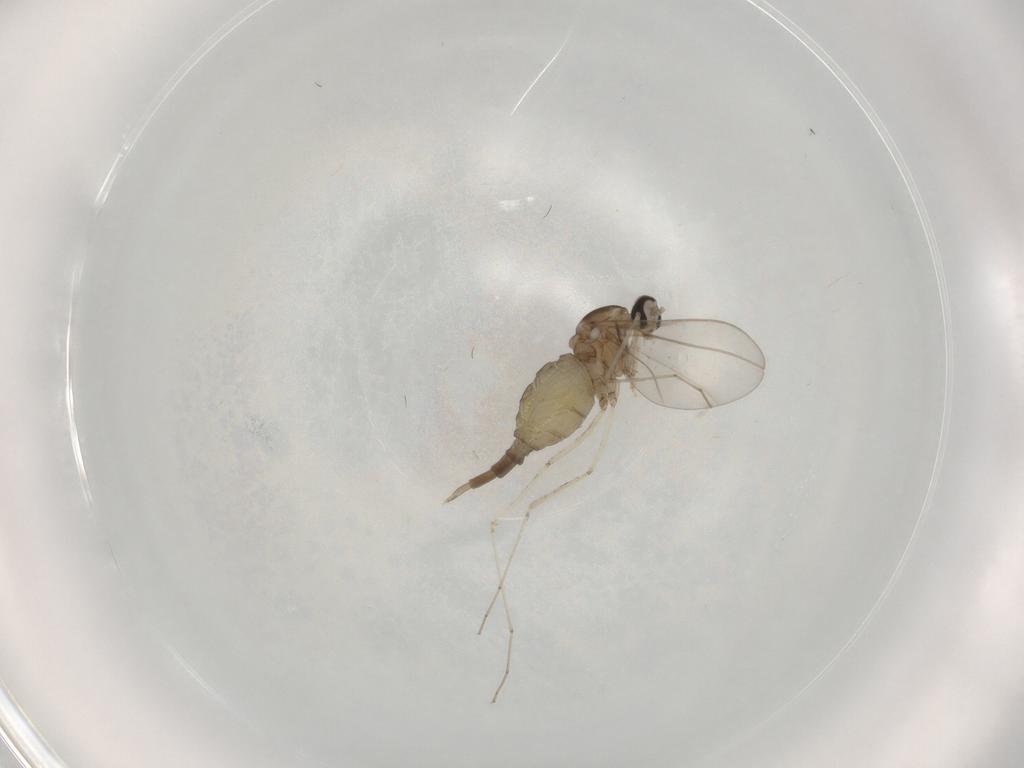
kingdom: Animalia
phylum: Arthropoda
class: Insecta
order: Diptera
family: Cecidomyiidae
